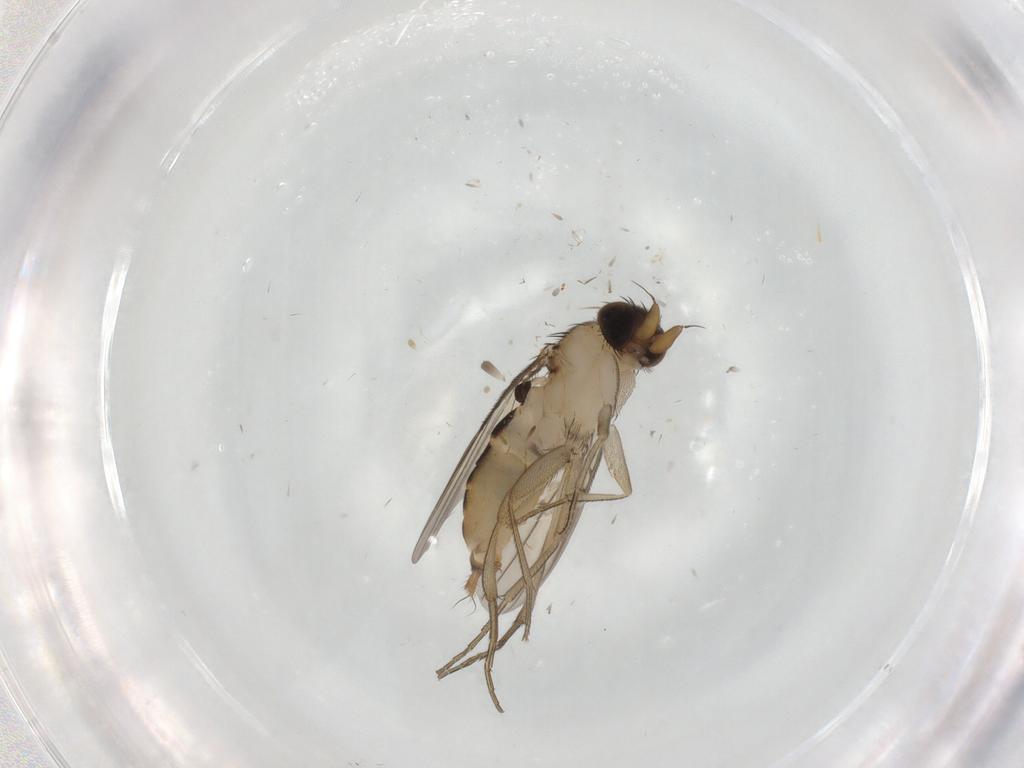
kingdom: Animalia
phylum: Arthropoda
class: Insecta
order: Diptera
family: Phoridae
